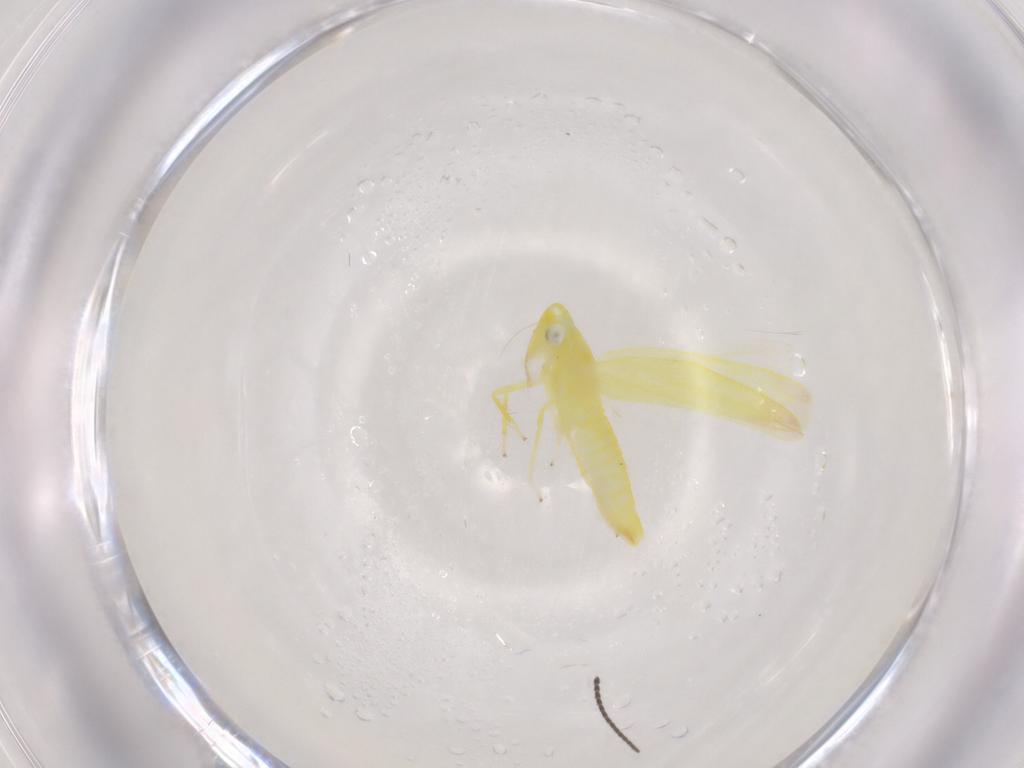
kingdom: Animalia
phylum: Arthropoda
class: Insecta
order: Hemiptera
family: Cicadellidae
